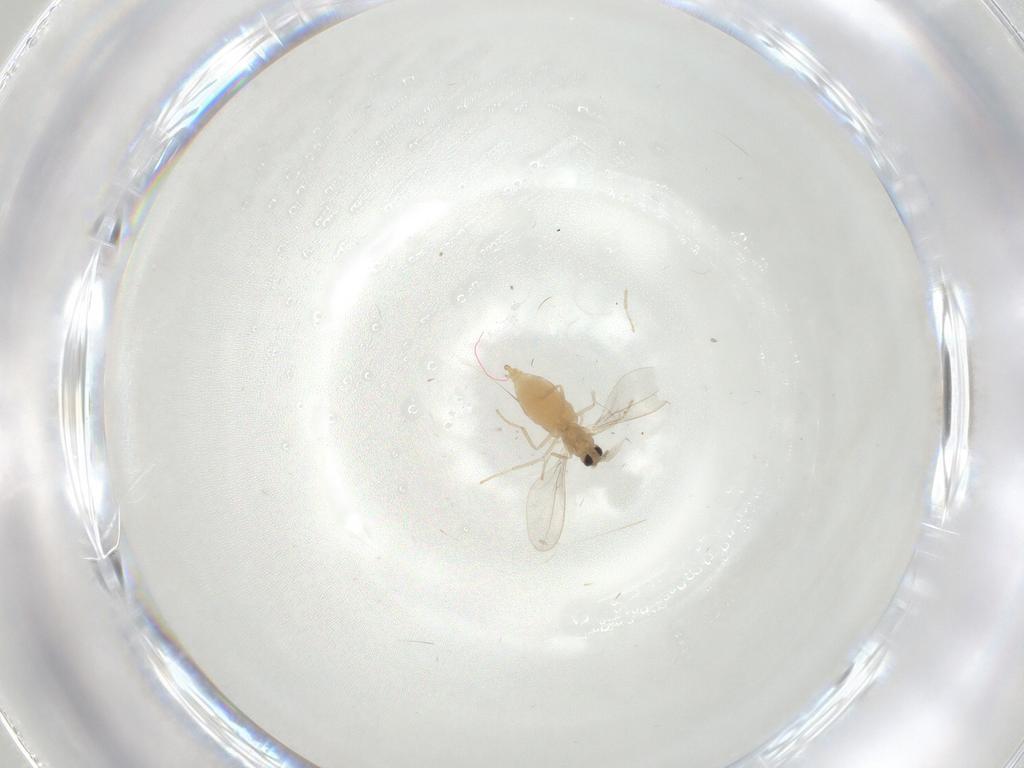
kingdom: Animalia
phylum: Arthropoda
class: Insecta
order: Diptera
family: Cecidomyiidae
